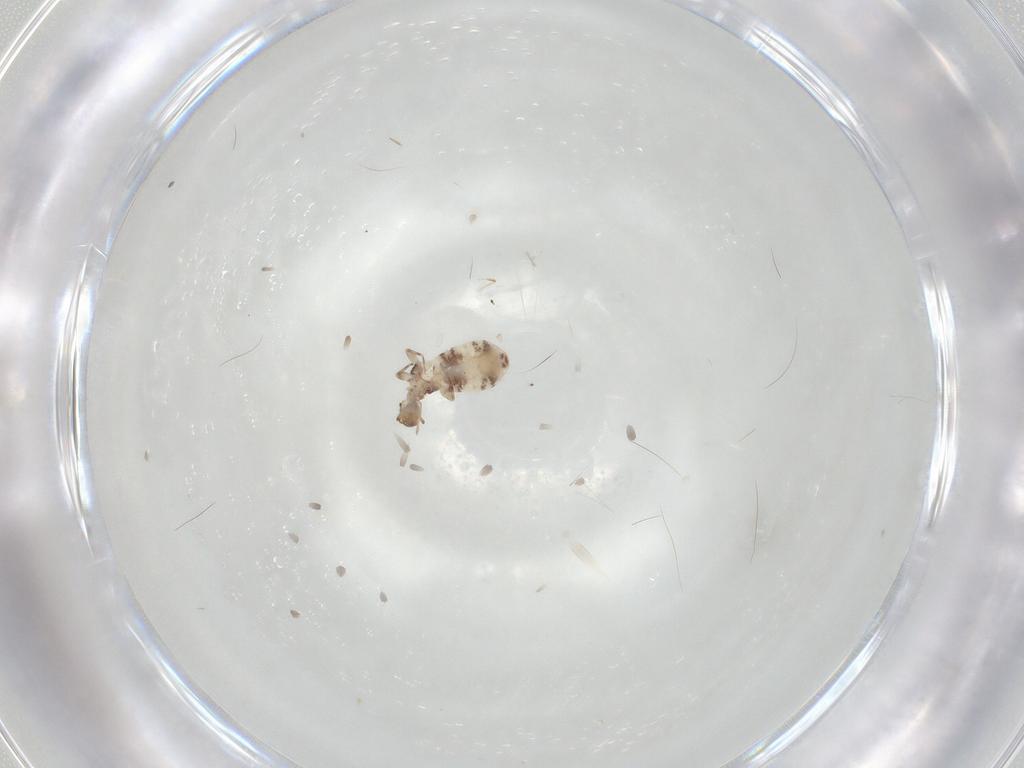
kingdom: Animalia
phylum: Arthropoda
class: Insecta
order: Psocodea
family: Liposcelididae
